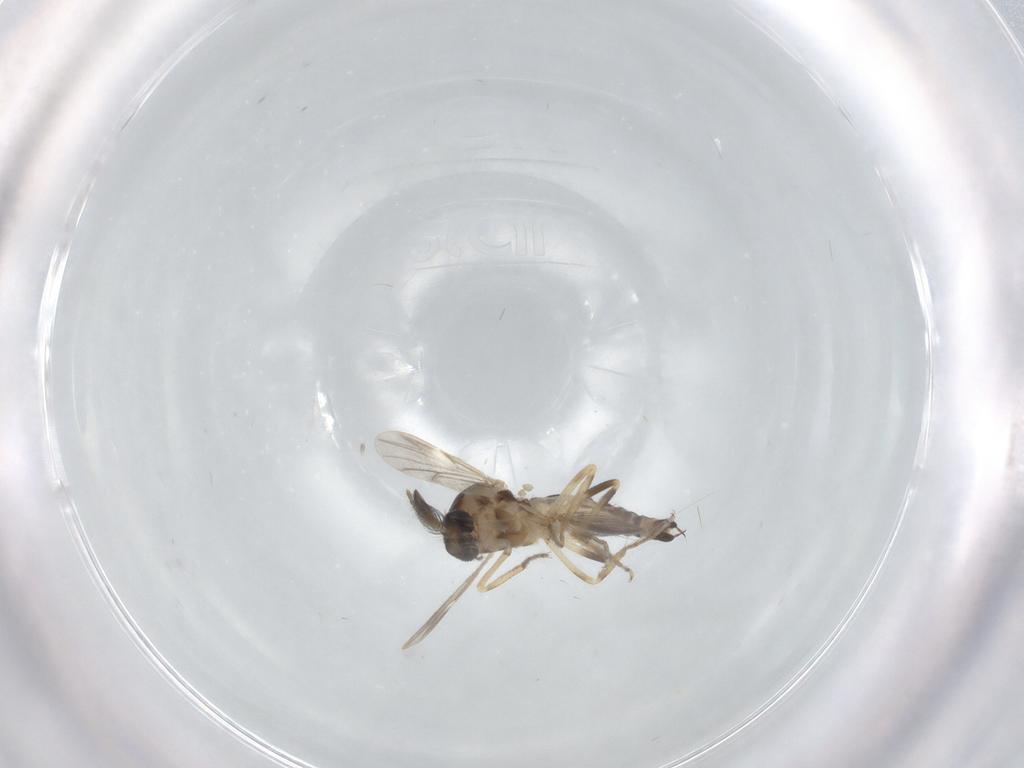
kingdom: Animalia
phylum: Arthropoda
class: Insecta
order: Diptera
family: Ceratopogonidae
